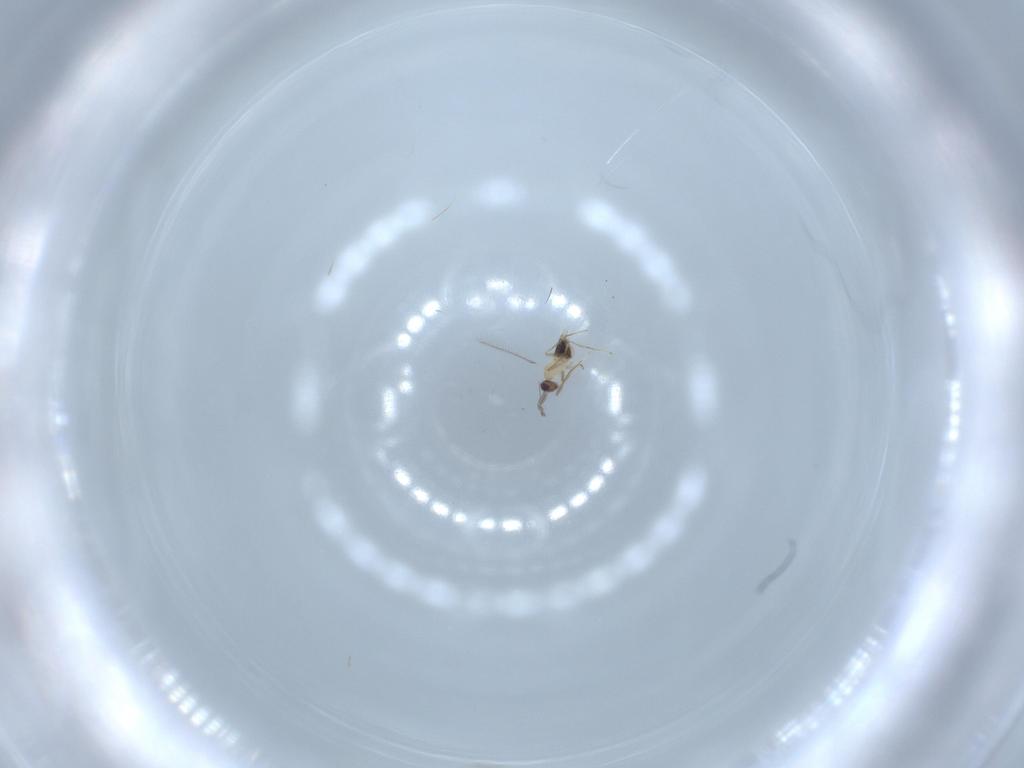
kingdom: Animalia
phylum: Arthropoda
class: Insecta
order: Hymenoptera
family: Mymaridae
